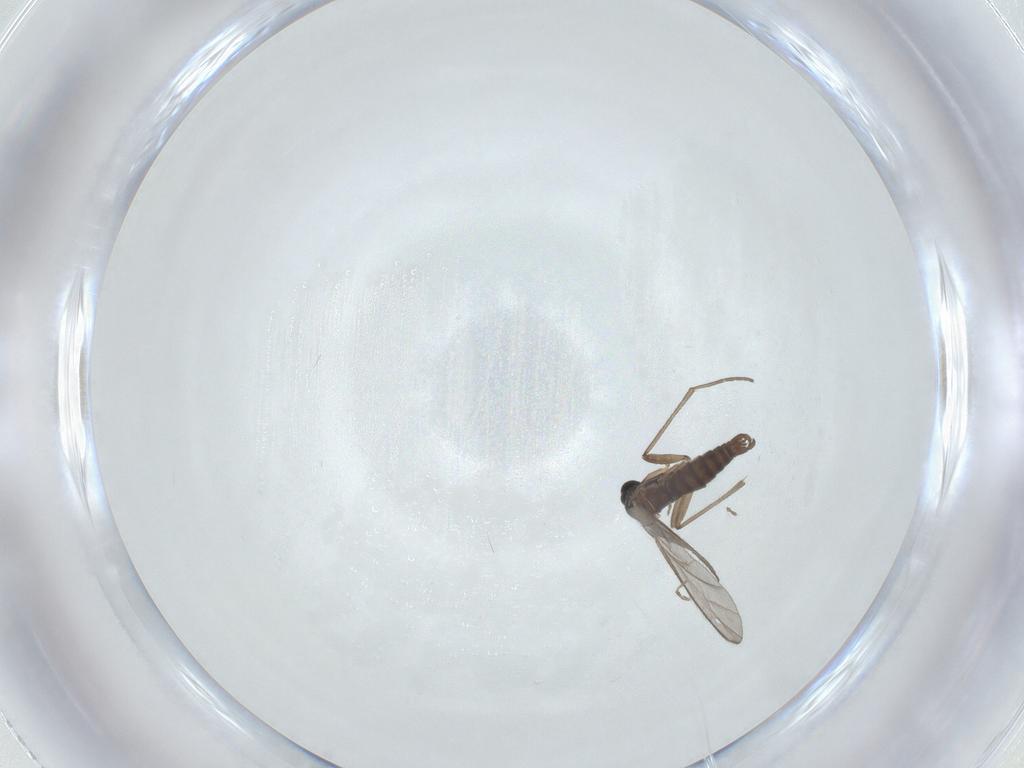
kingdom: Animalia
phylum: Arthropoda
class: Insecta
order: Diptera
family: Sciaridae
